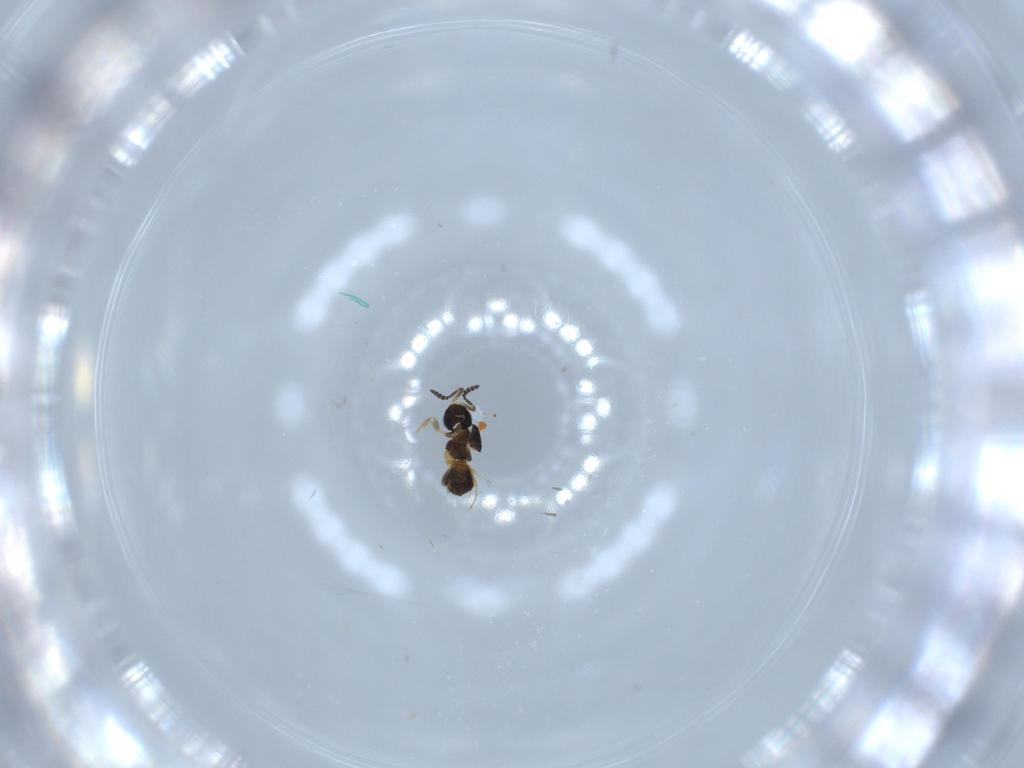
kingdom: Animalia
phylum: Arthropoda
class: Insecta
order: Hymenoptera
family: Scelionidae
